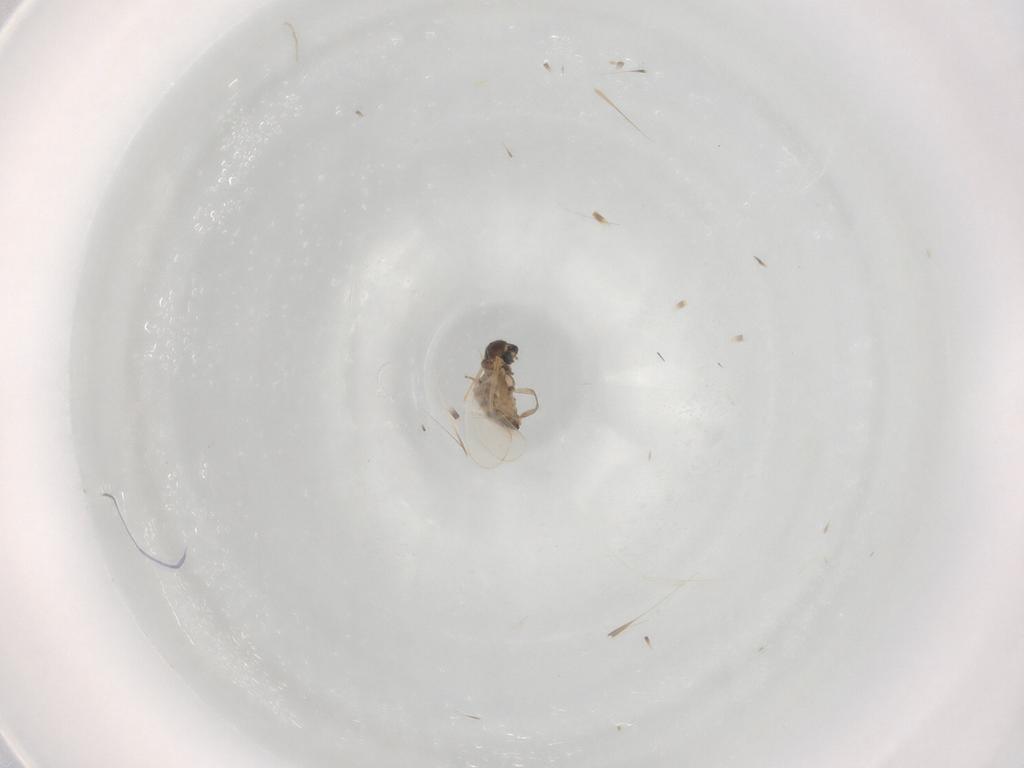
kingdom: Animalia
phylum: Arthropoda
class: Insecta
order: Diptera
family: Cecidomyiidae
